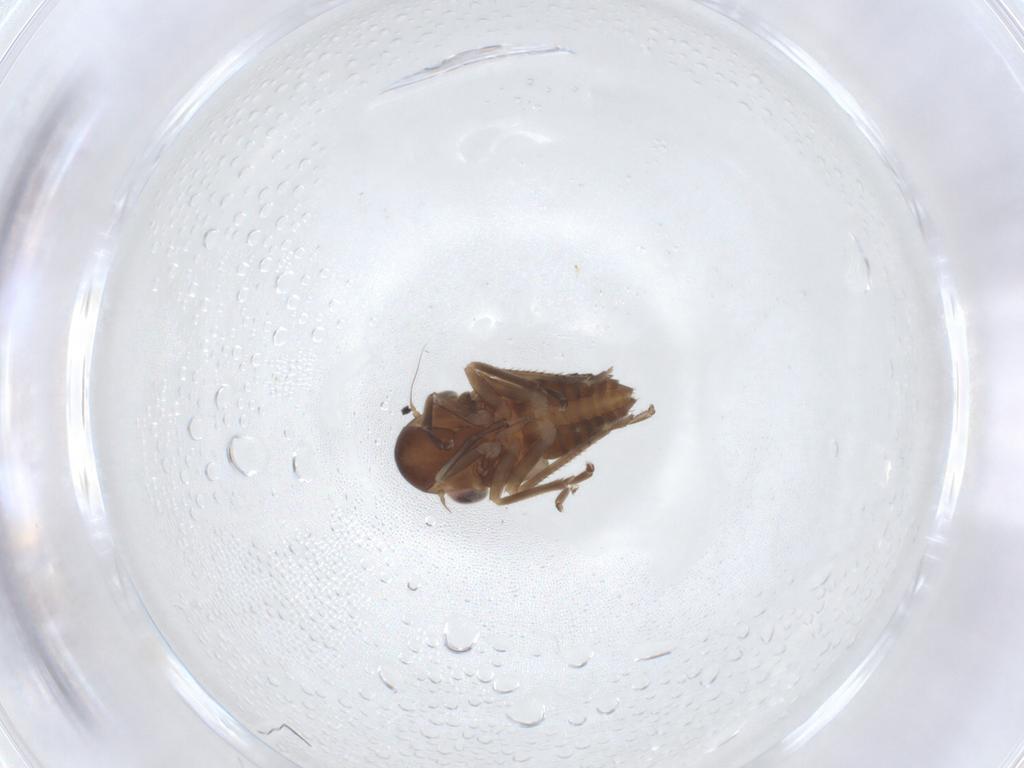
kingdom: Animalia
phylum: Arthropoda
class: Insecta
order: Hemiptera
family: Cicadellidae
